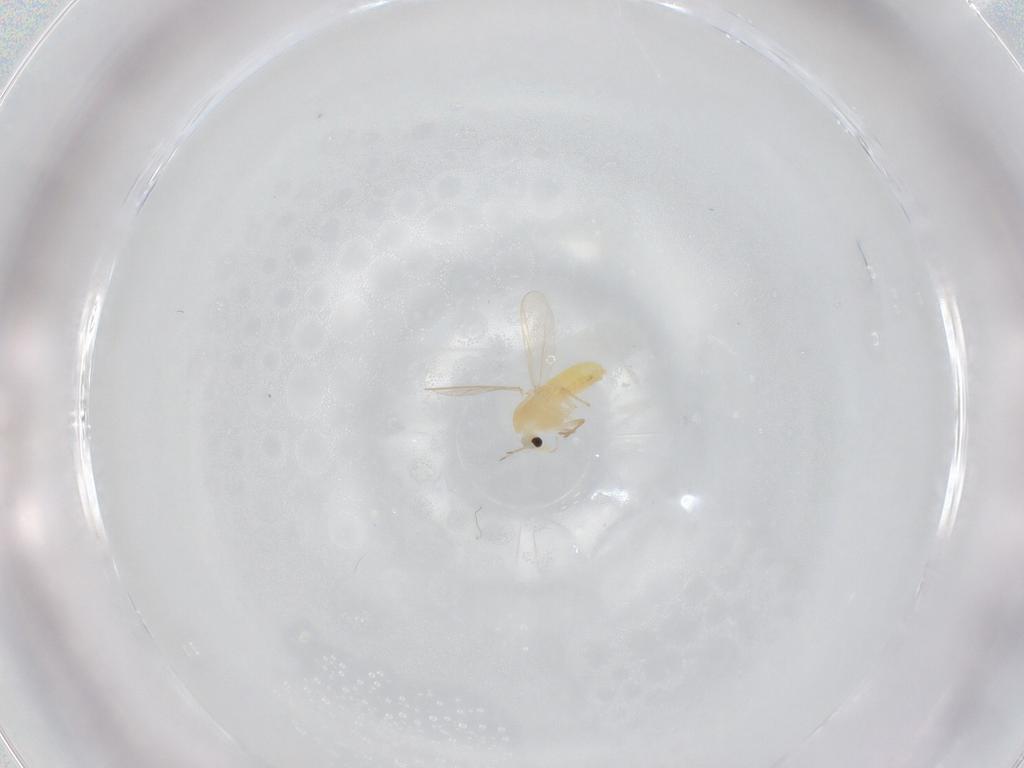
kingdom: Animalia
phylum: Arthropoda
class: Insecta
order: Diptera
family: Chironomidae
